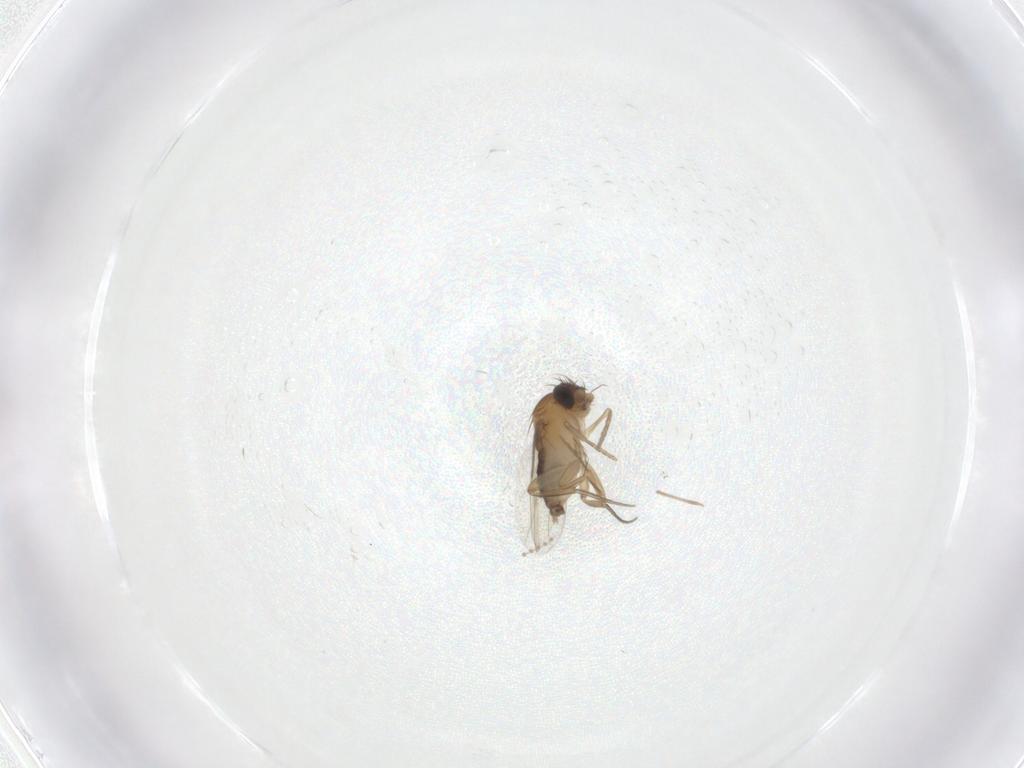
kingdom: Animalia
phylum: Arthropoda
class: Insecta
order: Diptera
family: Phoridae
